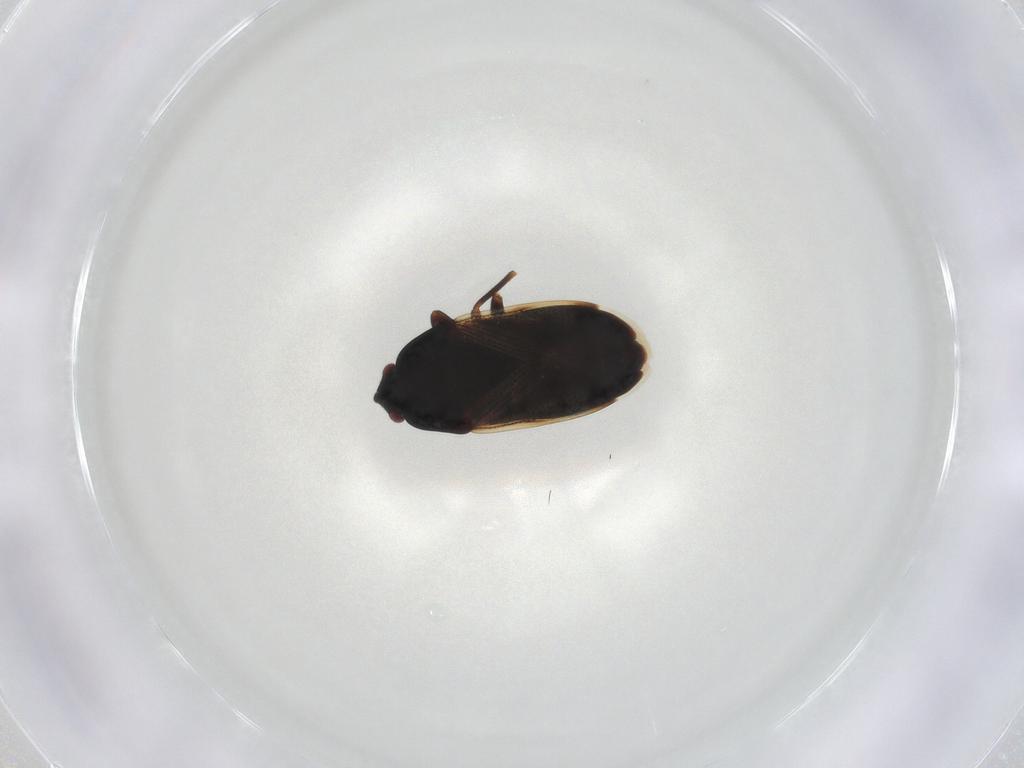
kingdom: Animalia
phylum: Arthropoda
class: Insecta
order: Hemiptera
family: Rhyparochromidae
